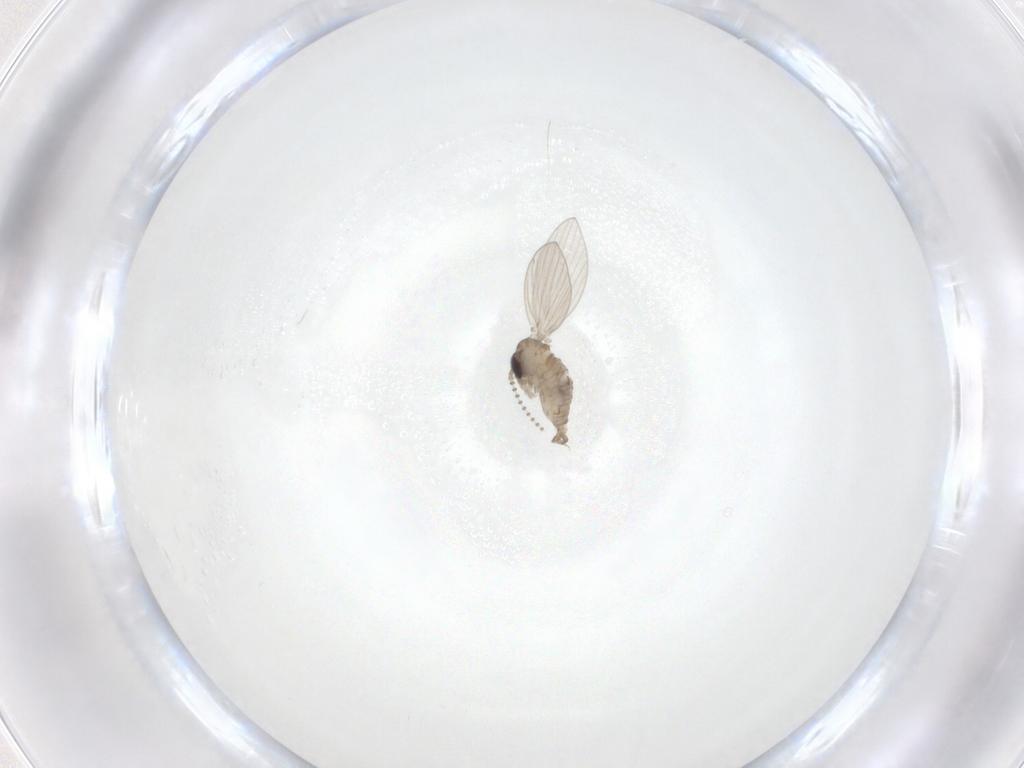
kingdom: Animalia
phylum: Arthropoda
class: Insecta
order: Diptera
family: Psychodidae
